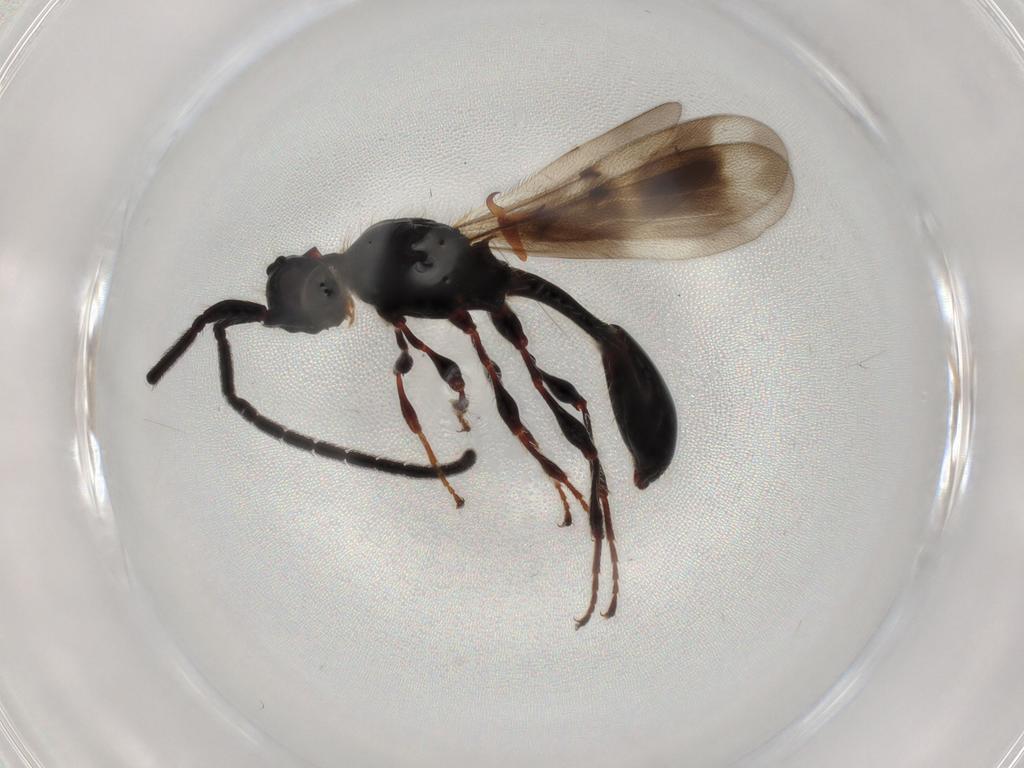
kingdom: Animalia
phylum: Arthropoda
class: Insecta
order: Hymenoptera
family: Diapriidae
